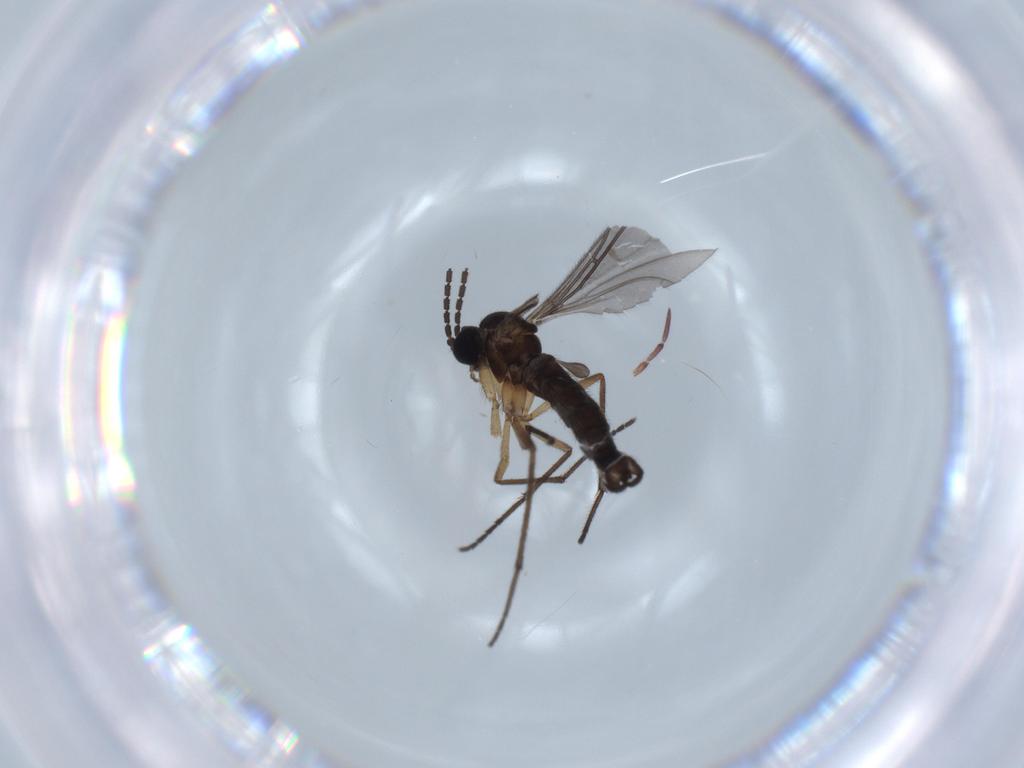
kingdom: Animalia
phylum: Arthropoda
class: Insecta
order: Diptera
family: Sciaridae
